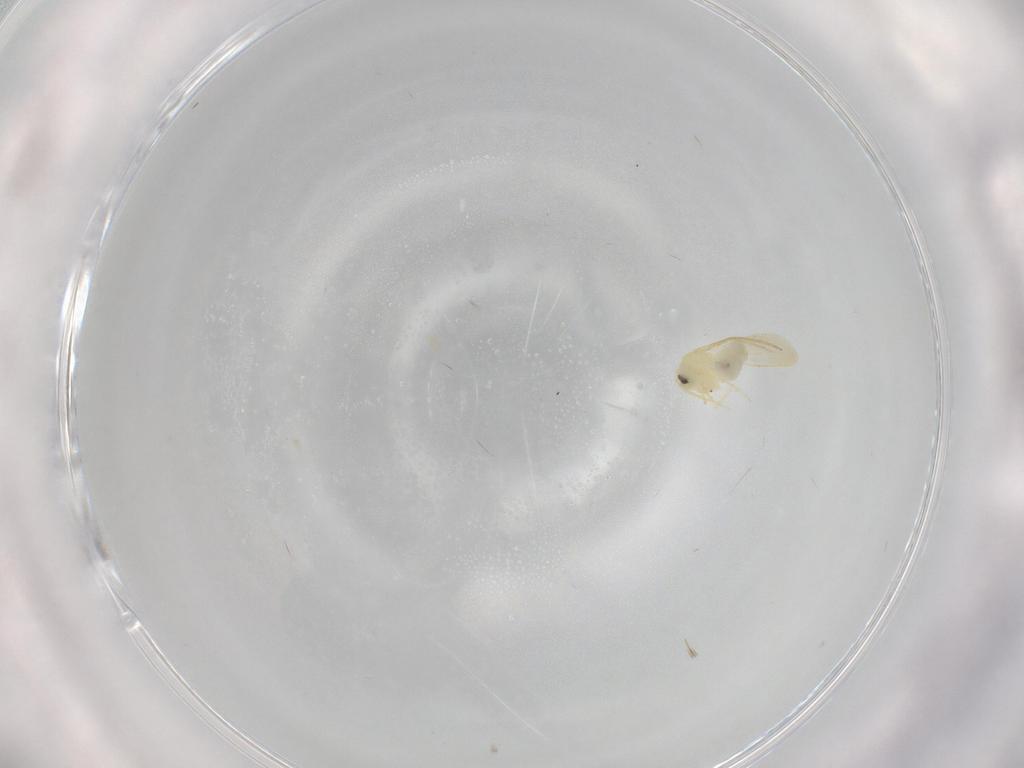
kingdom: Animalia
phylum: Arthropoda
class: Insecta
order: Hemiptera
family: Aleyrodidae
